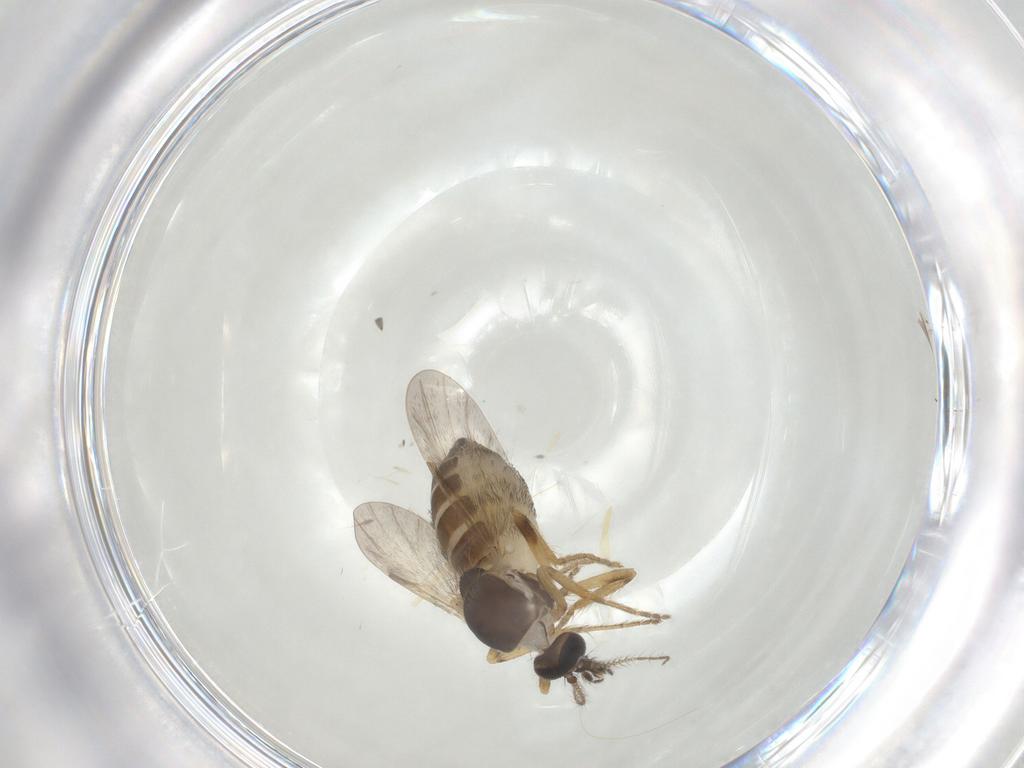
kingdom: Animalia
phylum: Arthropoda
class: Insecta
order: Diptera
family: Ceratopogonidae
